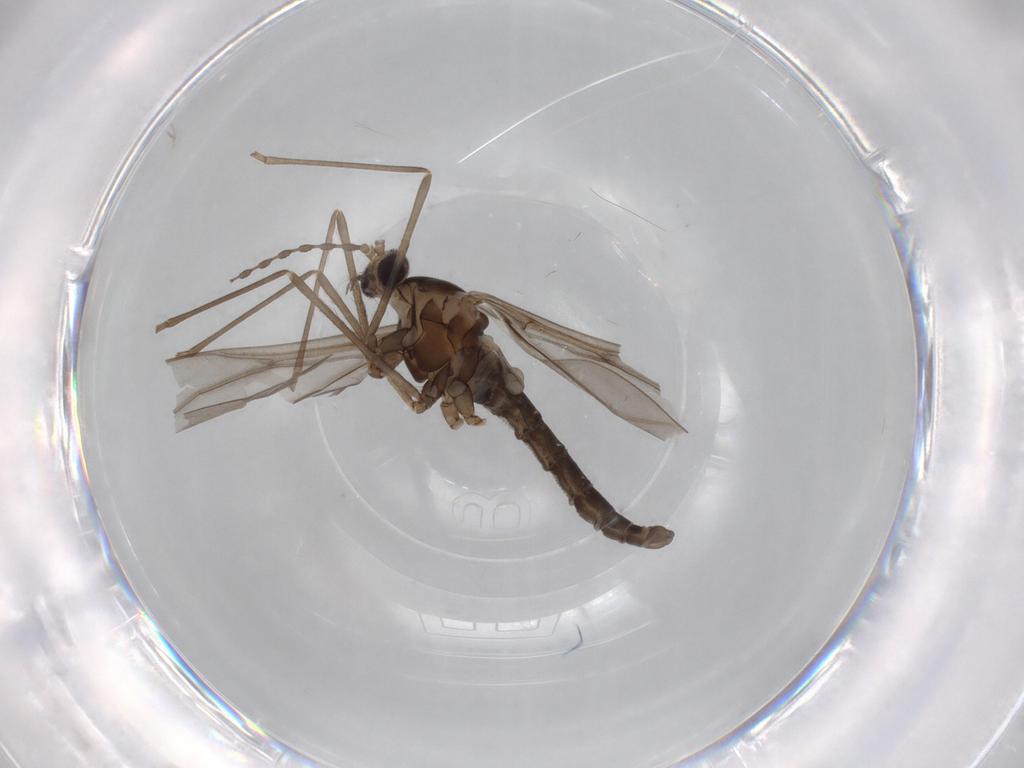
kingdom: Animalia
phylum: Arthropoda
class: Insecta
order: Diptera
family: Cecidomyiidae
